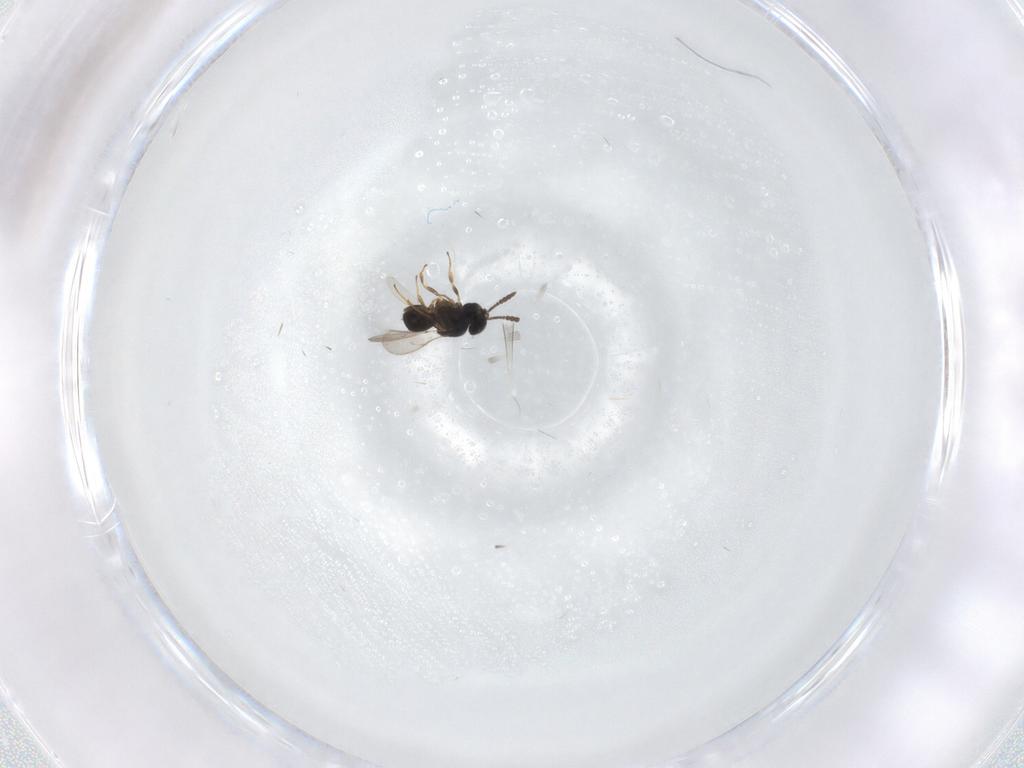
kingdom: Animalia
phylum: Arthropoda
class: Insecta
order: Hymenoptera
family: Scelionidae
